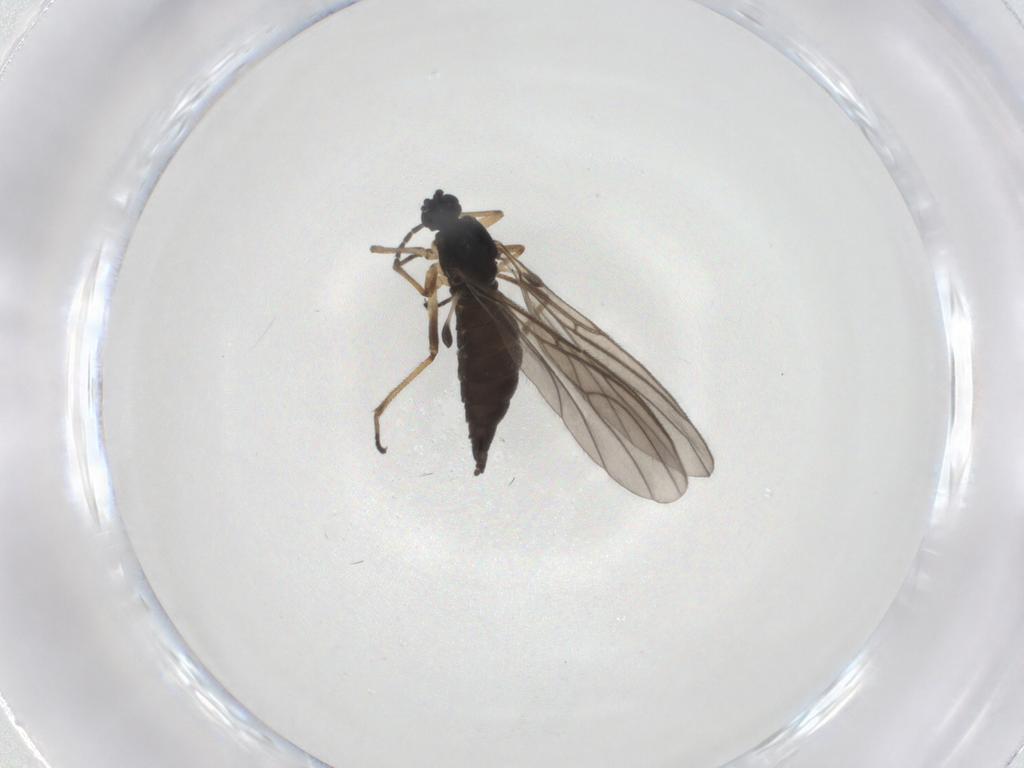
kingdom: Animalia
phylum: Arthropoda
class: Insecta
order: Diptera
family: Sciaridae
